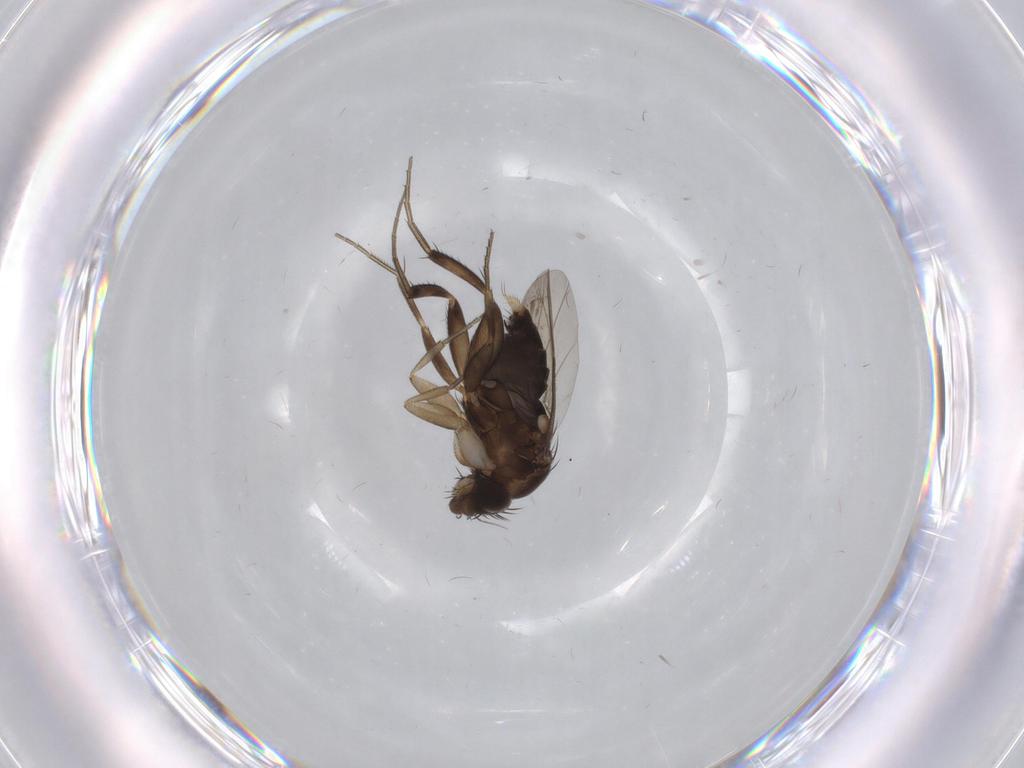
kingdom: Animalia
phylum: Arthropoda
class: Insecta
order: Diptera
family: Phoridae
